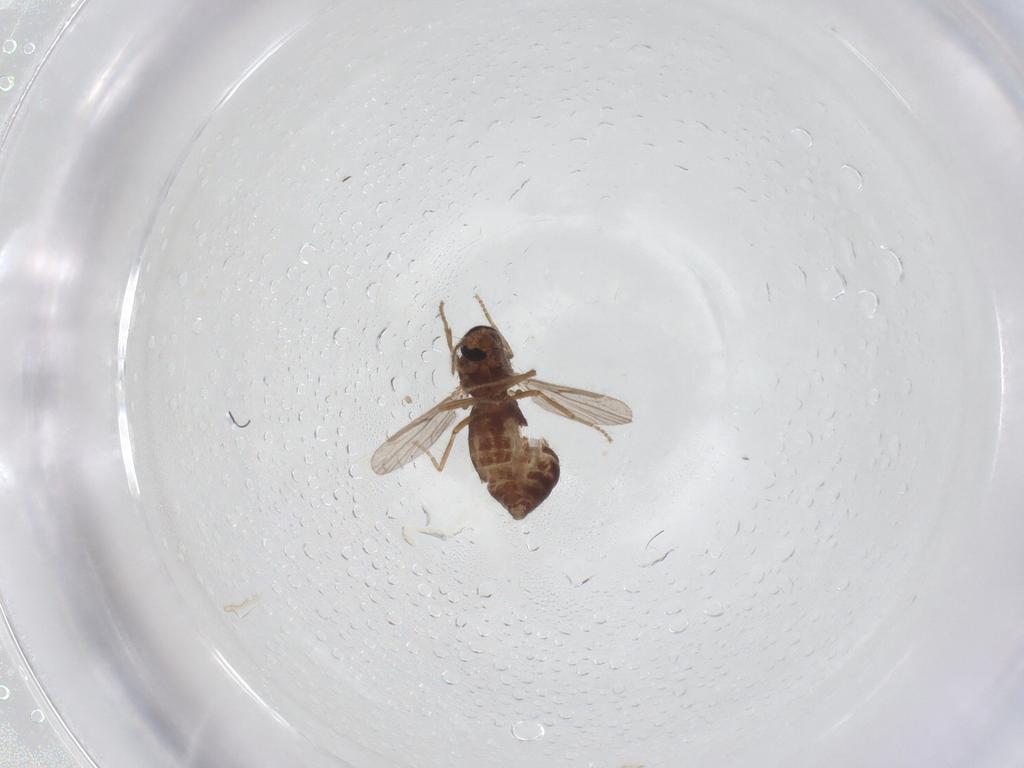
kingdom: Animalia
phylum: Arthropoda
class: Insecta
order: Diptera
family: Ceratopogonidae
